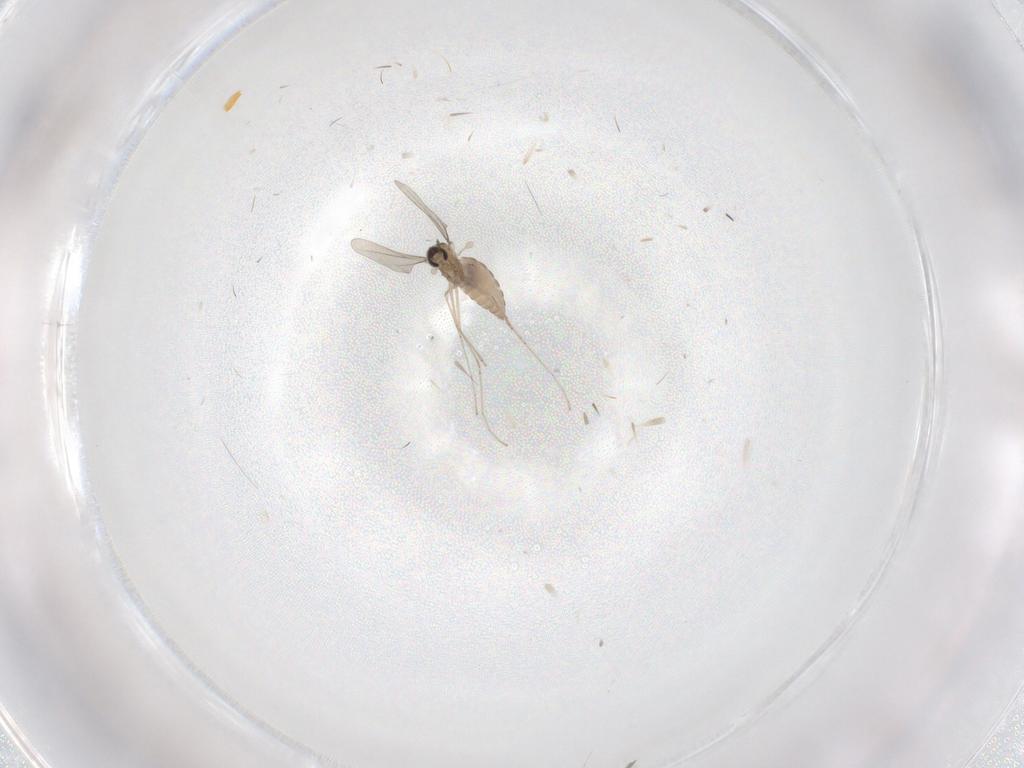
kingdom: Animalia
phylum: Arthropoda
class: Insecta
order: Diptera
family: Cecidomyiidae
